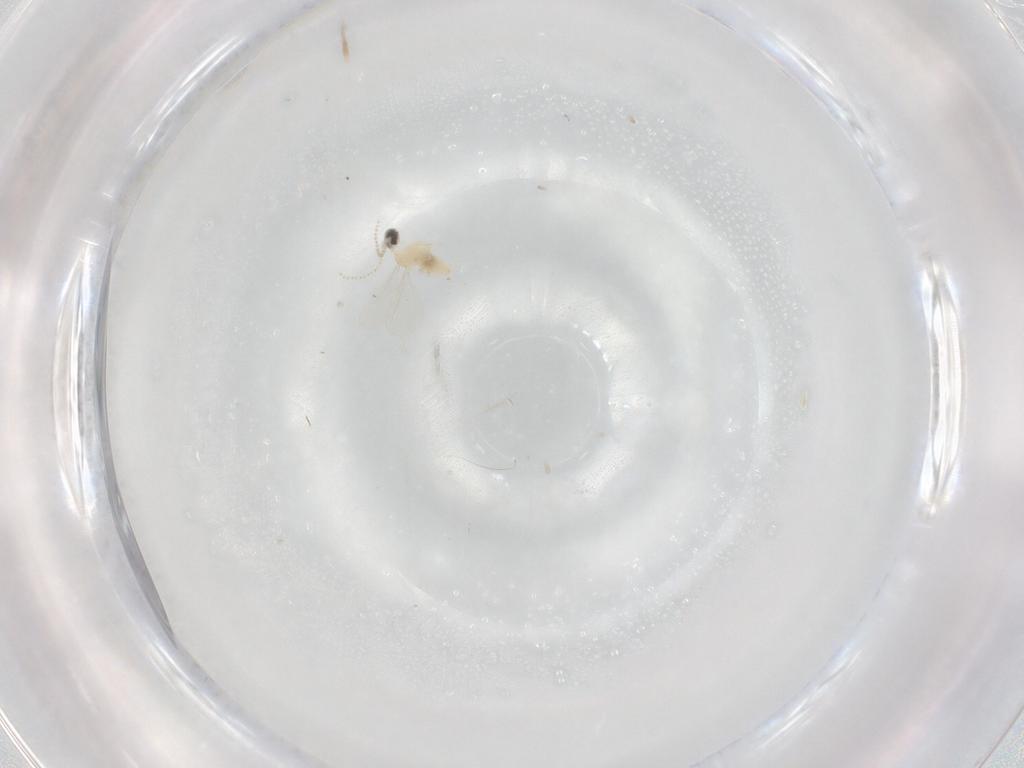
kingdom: Animalia
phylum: Arthropoda
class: Insecta
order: Diptera
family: Cecidomyiidae
